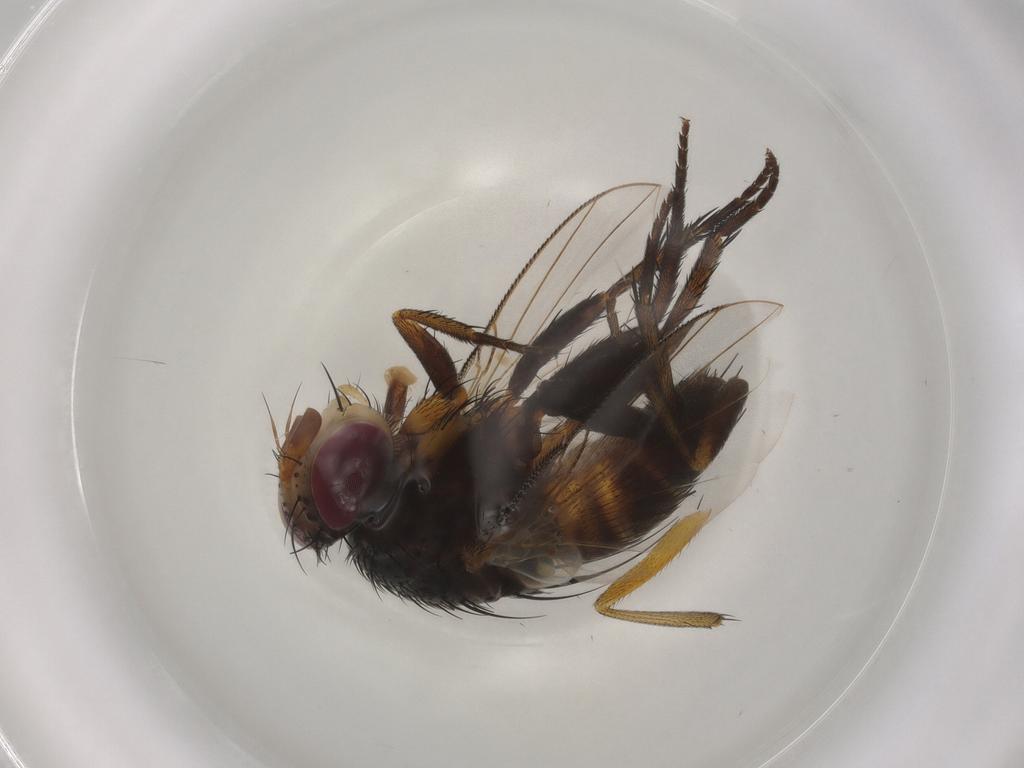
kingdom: Animalia
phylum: Arthropoda
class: Insecta
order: Diptera
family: Tachinidae
